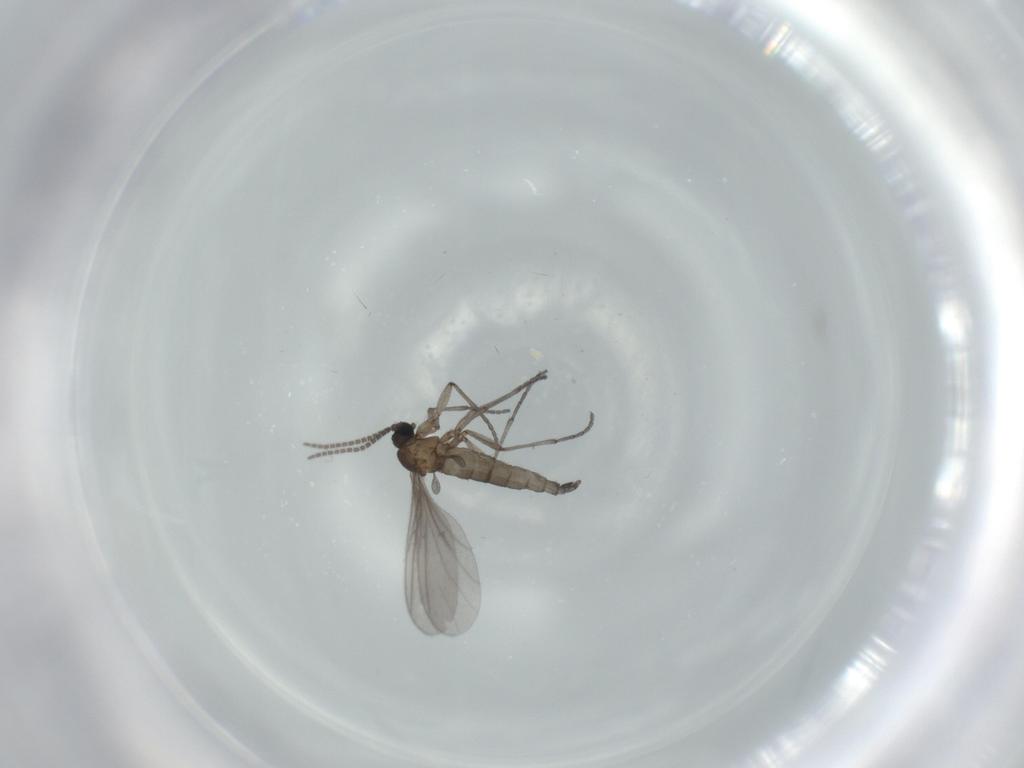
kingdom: Animalia
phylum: Arthropoda
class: Insecta
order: Diptera
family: Sciaridae
